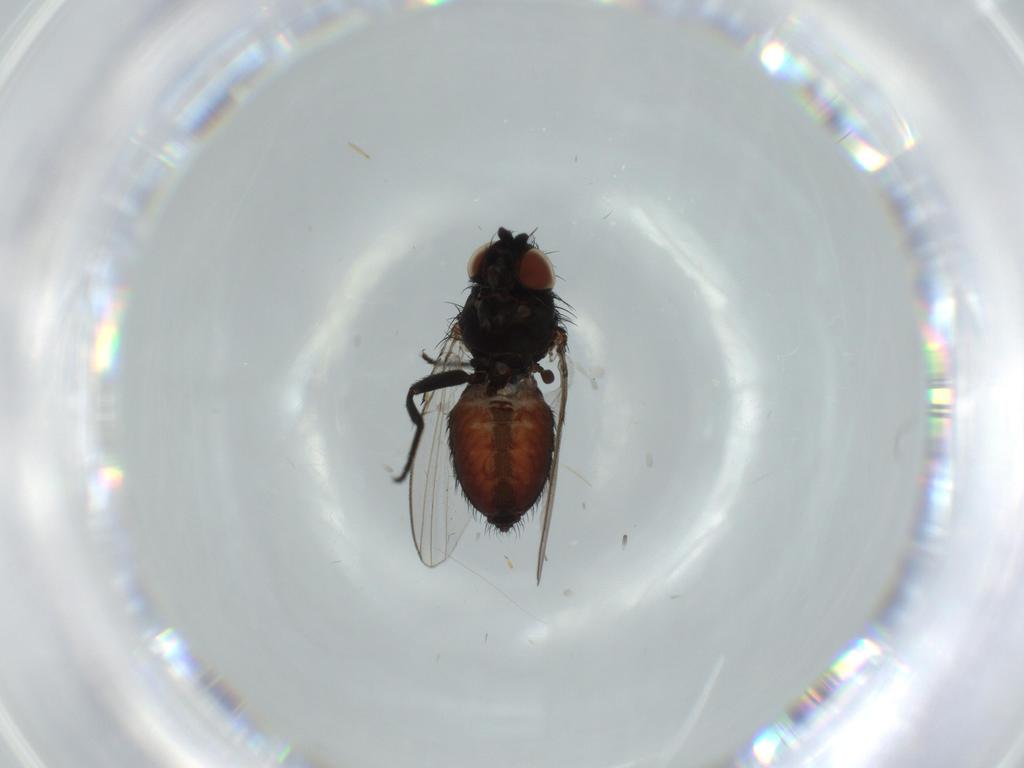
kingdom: Animalia
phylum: Arthropoda
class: Insecta
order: Diptera
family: Milichiidae
